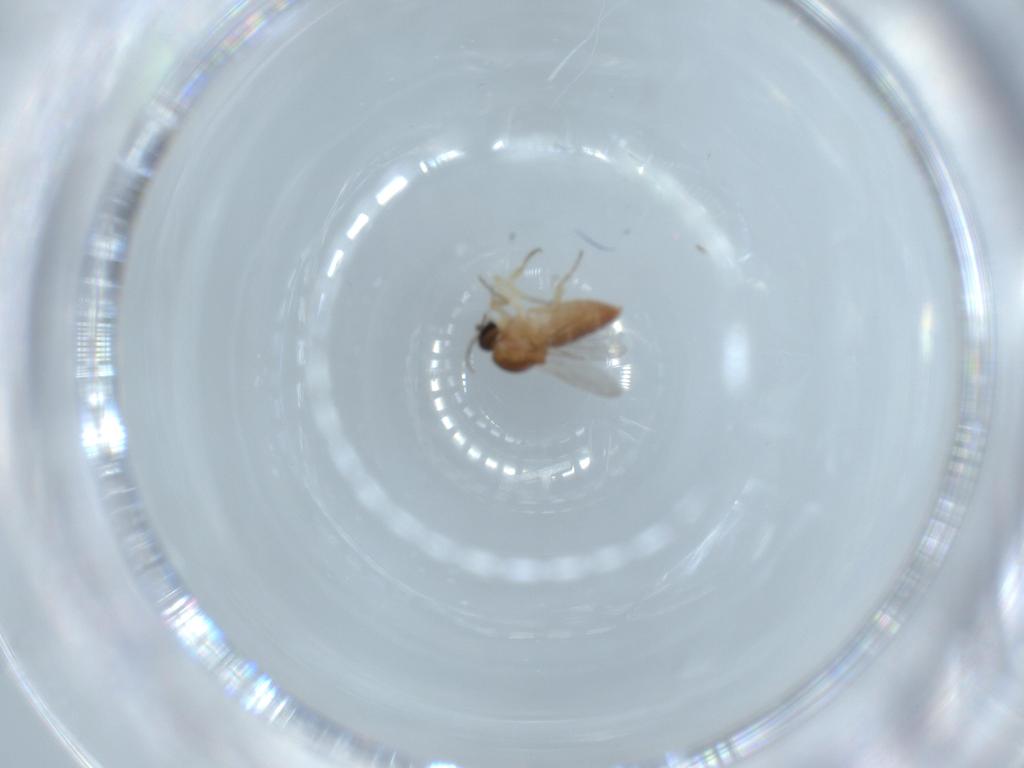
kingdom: Animalia
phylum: Arthropoda
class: Insecta
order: Diptera
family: Ceratopogonidae
